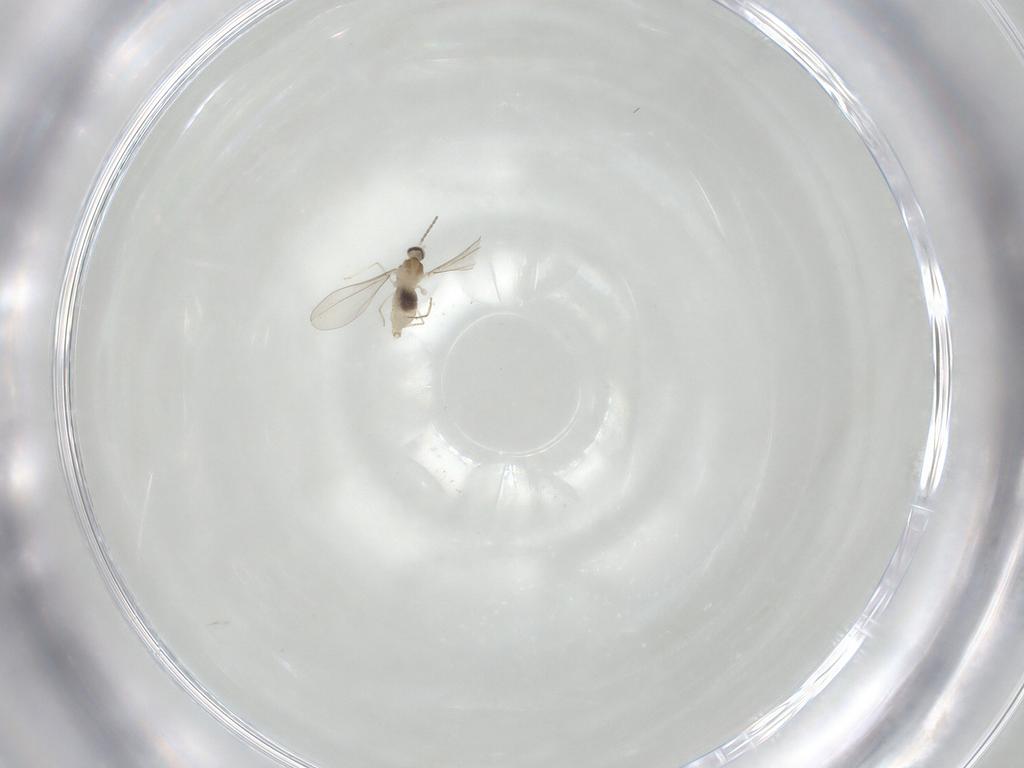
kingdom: Animalia
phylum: Arthropoda
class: Insecta
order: Diptera
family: Cecidomyiidae
